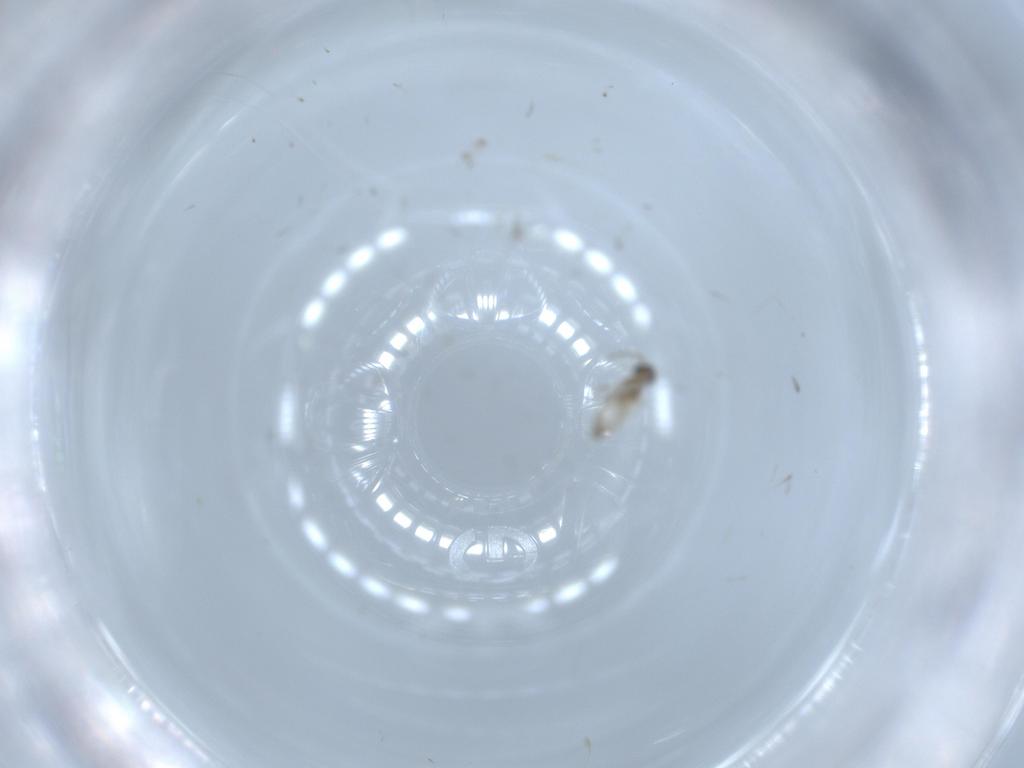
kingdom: Animalia
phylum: Arthropoda
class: Insecta
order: Diptera
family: Cecidomyiidae
